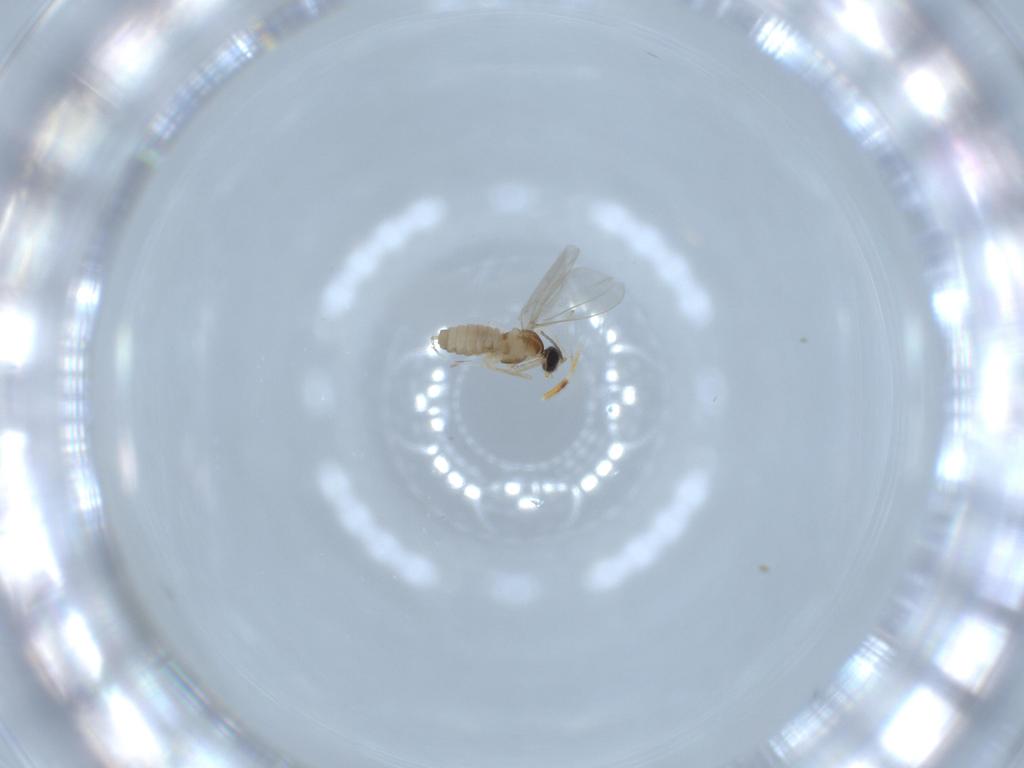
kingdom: Animalia
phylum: Arthropoda
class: Insecta
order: Diptera
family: Cecidomyiidae
